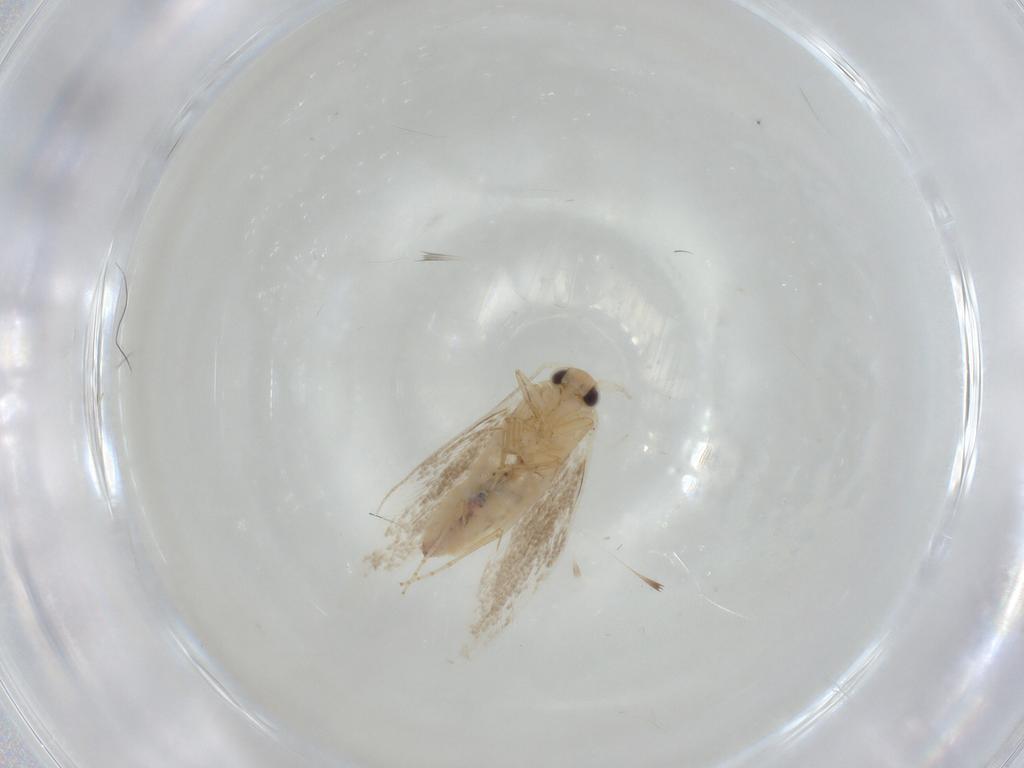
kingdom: Animalia
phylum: Arthropoda
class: Insecta
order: Lepidoptera
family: Bucculatricidae
